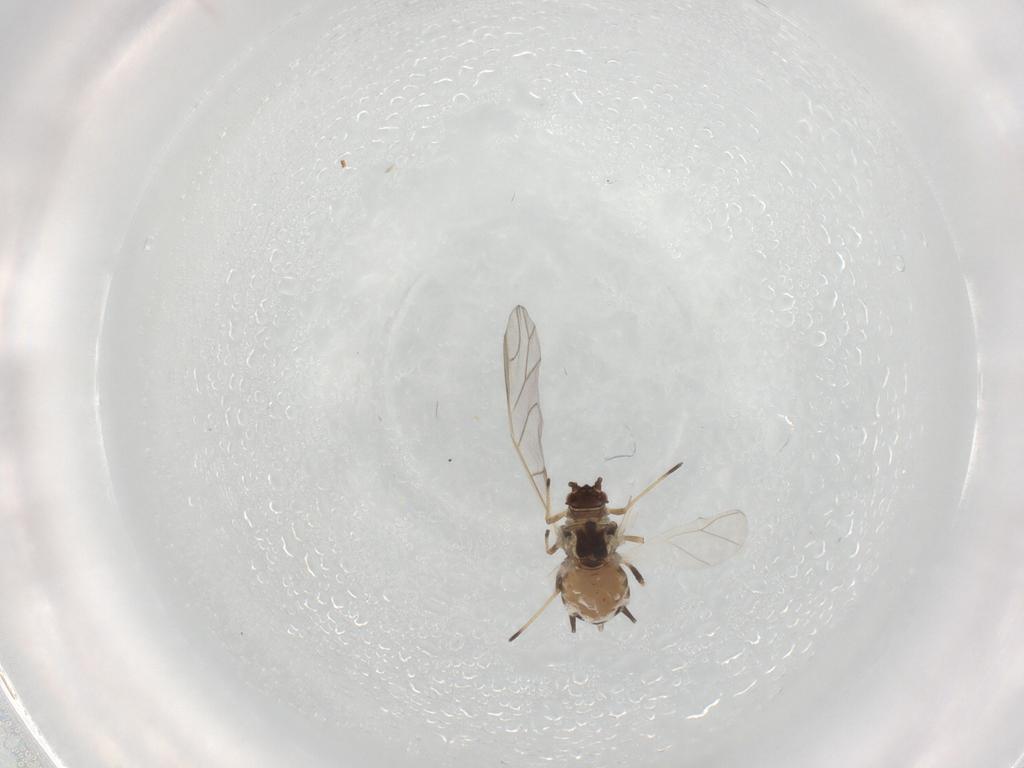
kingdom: Animalia
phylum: Arthropoda
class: Insecta
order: Hemiptera
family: Aphididae
